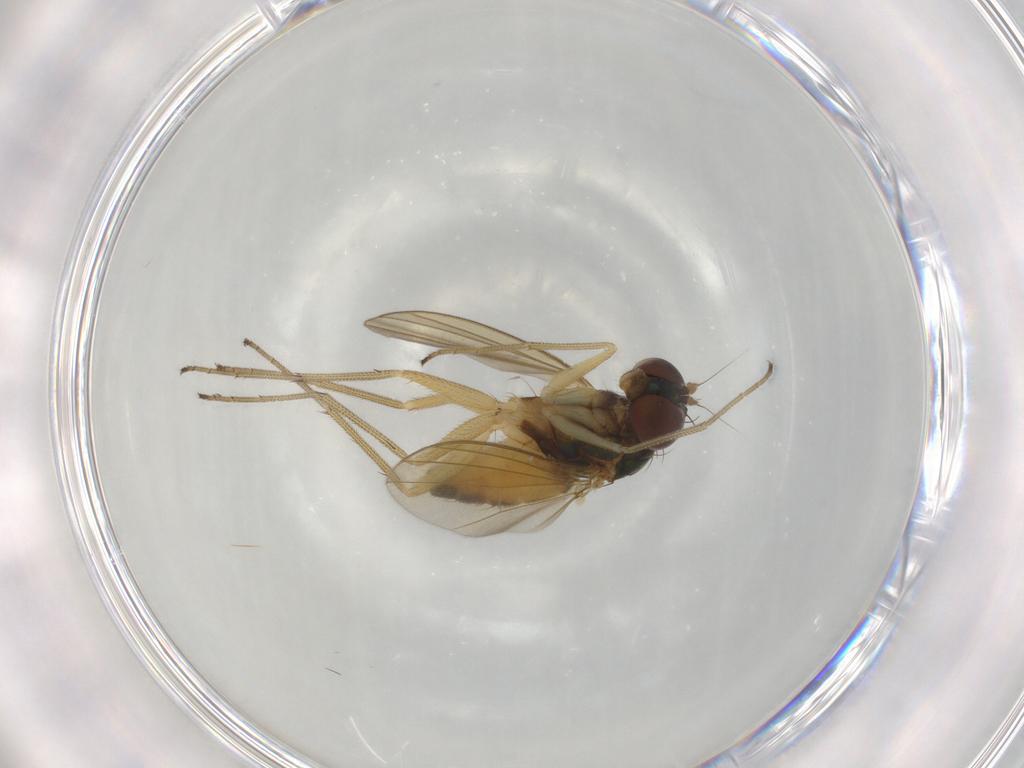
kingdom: Animalia
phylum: Arthropoda
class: Insecta
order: Diptera
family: Dolichopodidae
